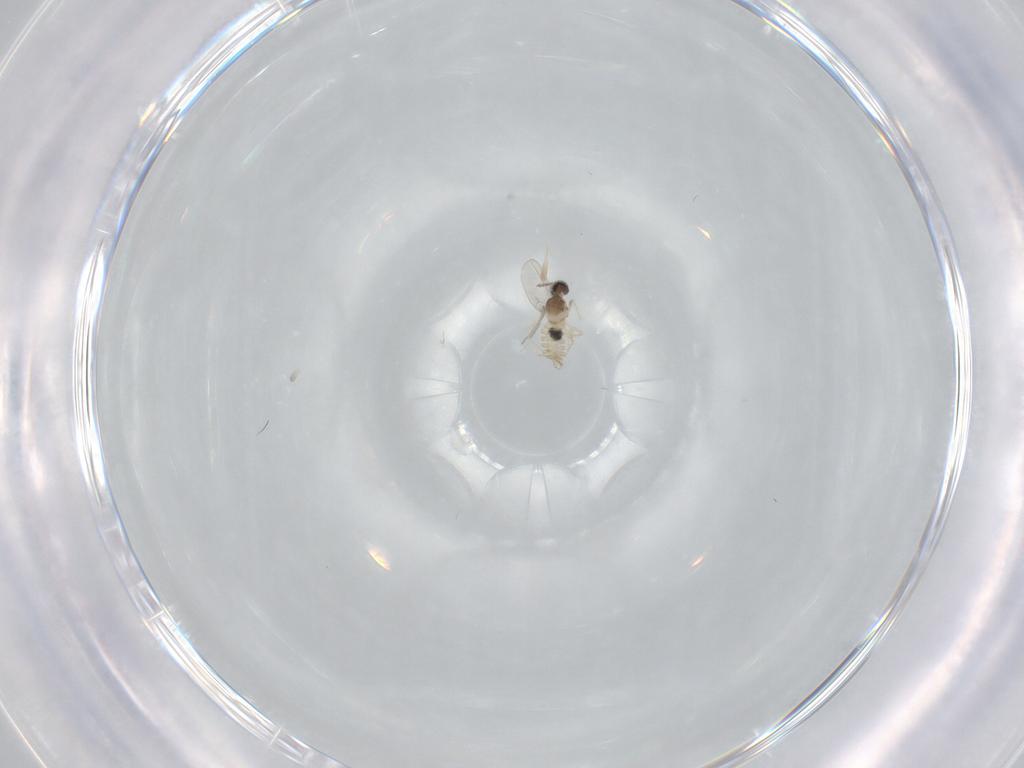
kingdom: Animalia
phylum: Arthropoda
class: Insecta
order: Diptera
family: Cecidomyiidae
